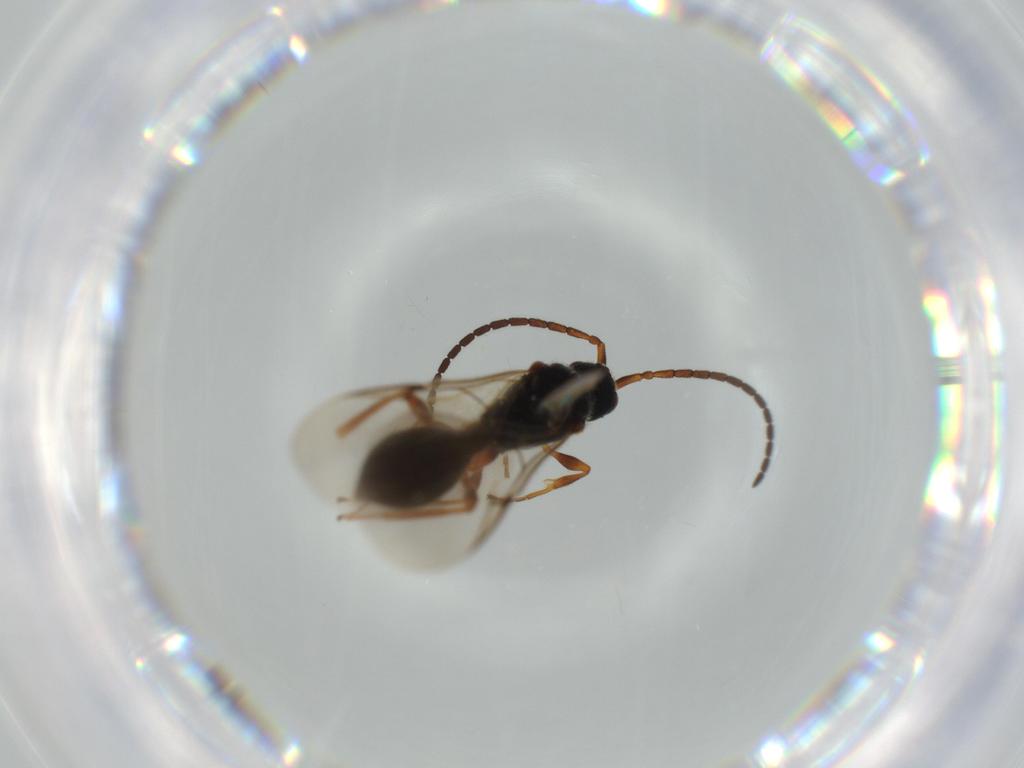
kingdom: Animalia
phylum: Arthropoda
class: Insecta
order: Hymenoptera
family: Diapriidae
